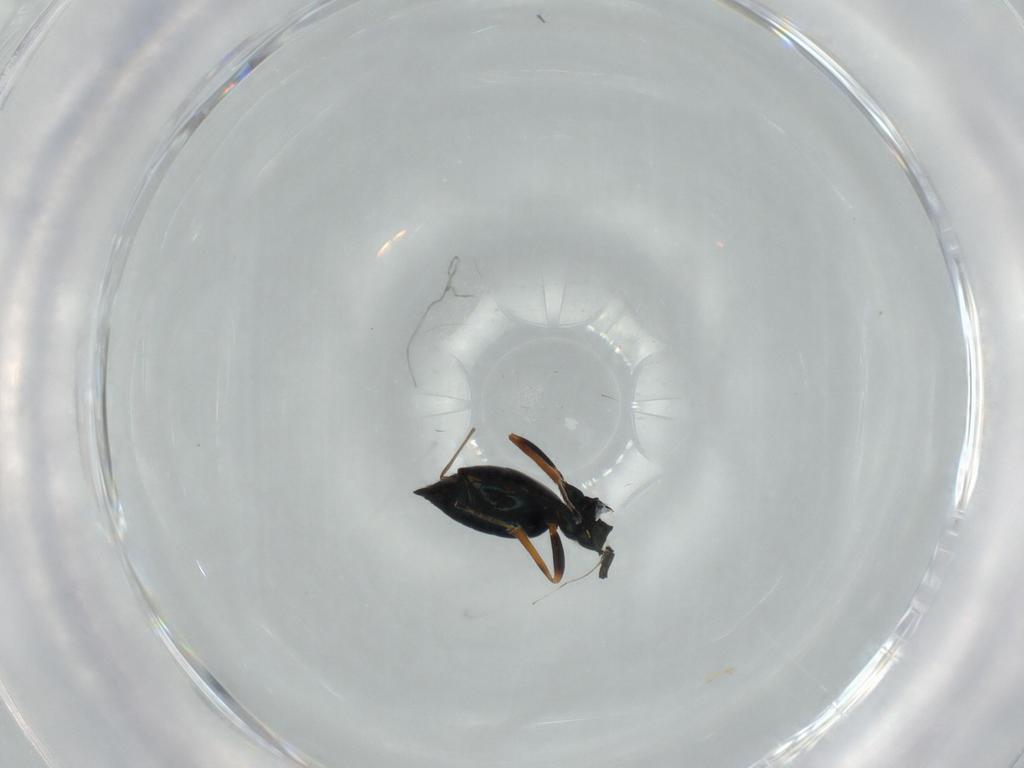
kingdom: Animalia
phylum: Arthropoda
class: Insecta
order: Hymenoptera
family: Pteromalidae
